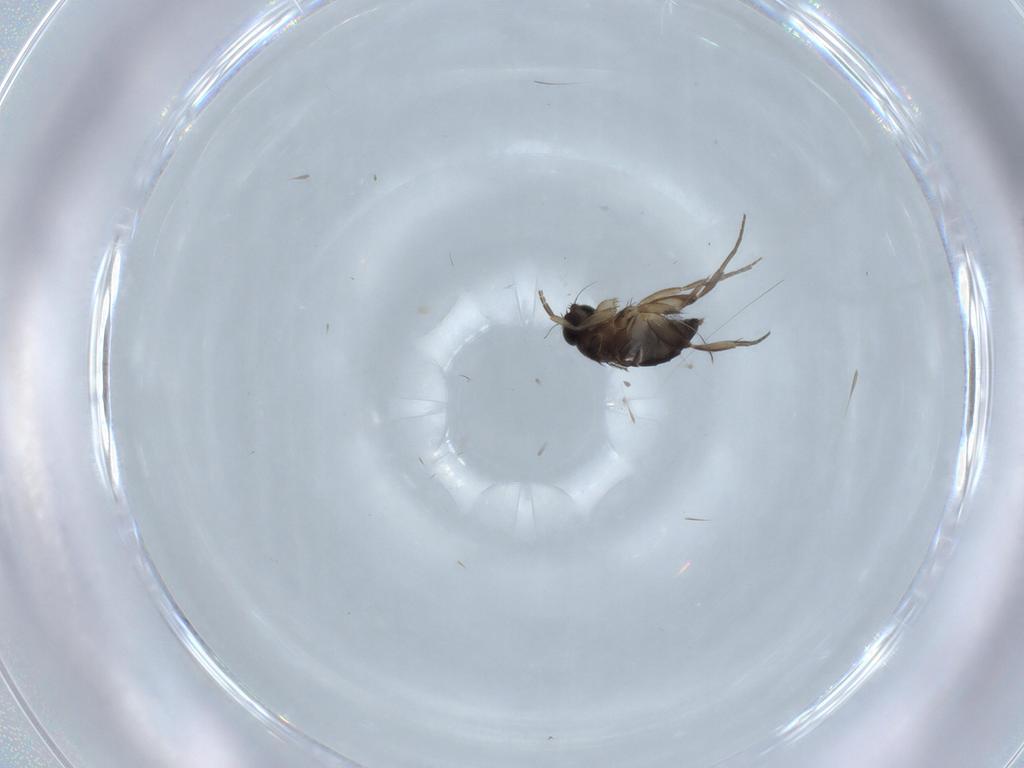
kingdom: Animalia
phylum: Arthropoda
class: Insecta
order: Diptera
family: Phoridae
